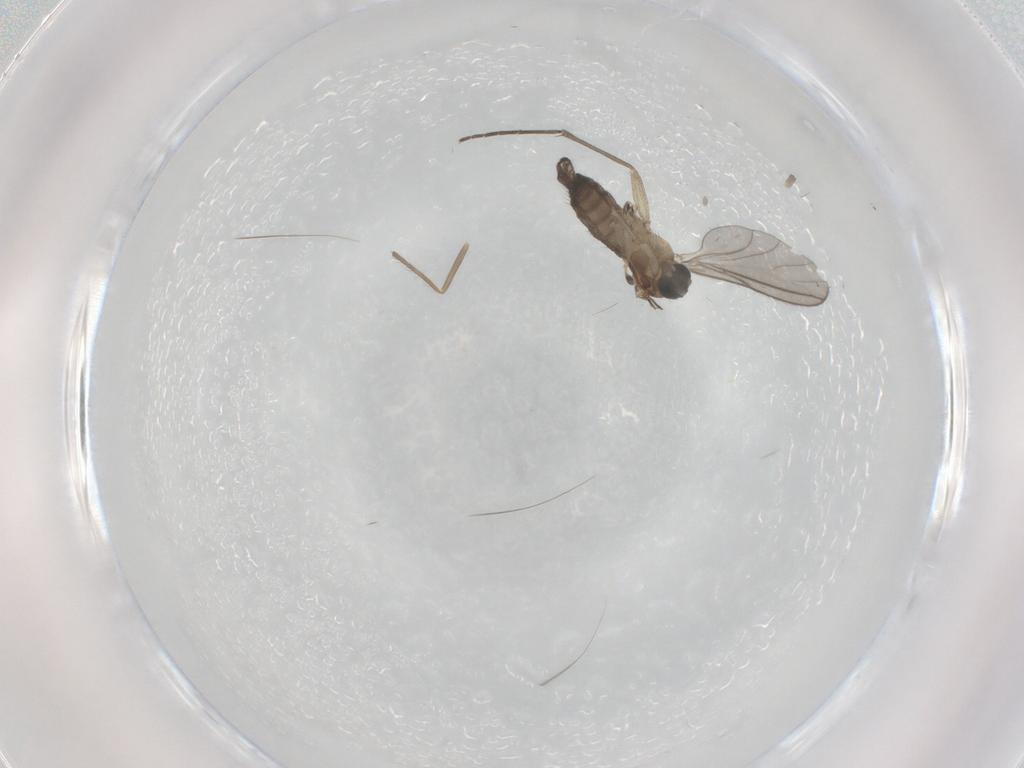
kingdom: Animalia
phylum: Arthropoda
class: Insecta
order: Diptera
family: Sciaridae
